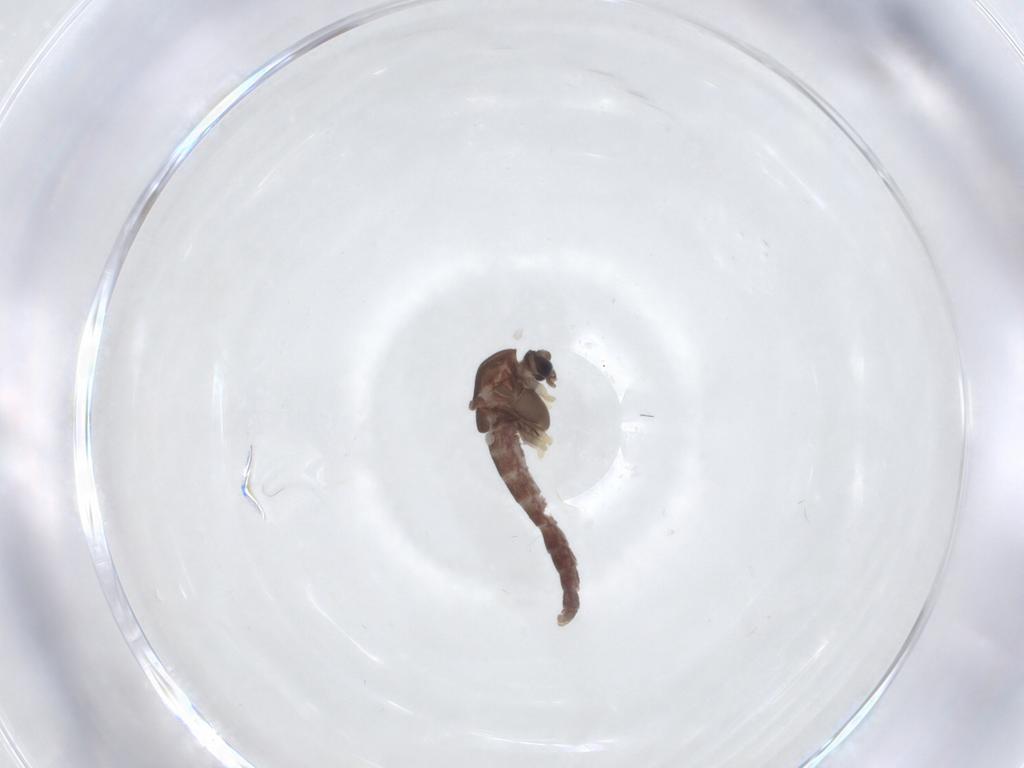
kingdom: Animalia
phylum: Arthropoda
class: Insecta
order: Diptera
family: Chironomidae
